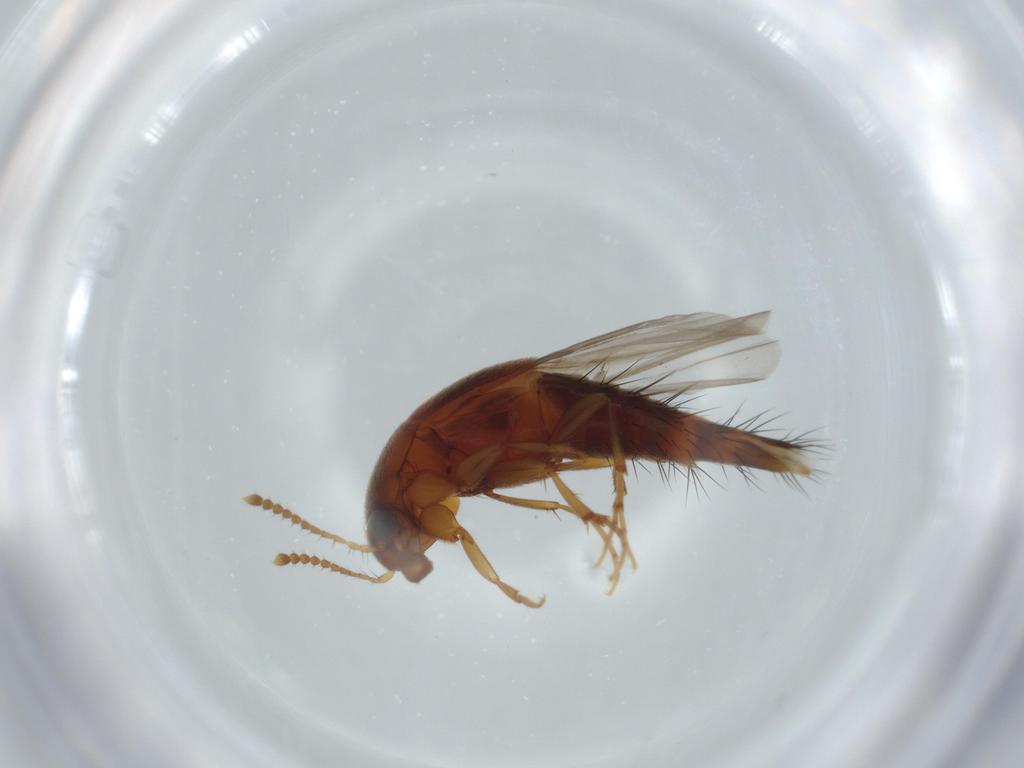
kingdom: Animalia
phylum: Arthropoda
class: Insecta
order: Coleoptera
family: Staphylinidae
